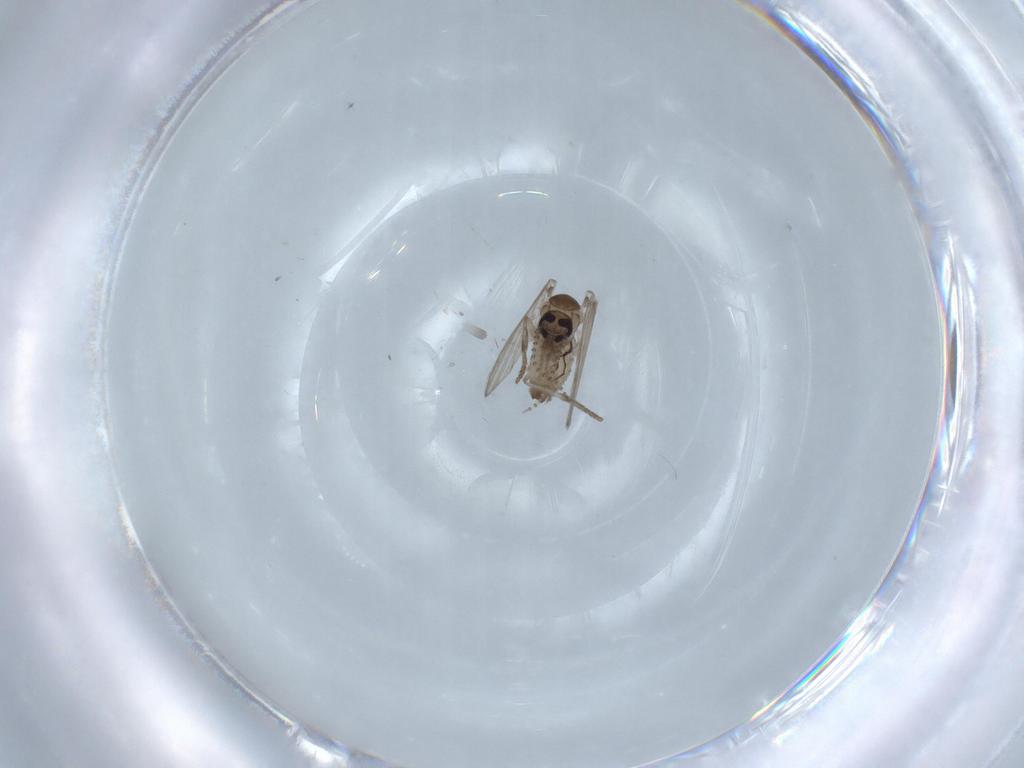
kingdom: Animalia
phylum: Arthropoda
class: Insecta
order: Diptera
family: Psychodidae
